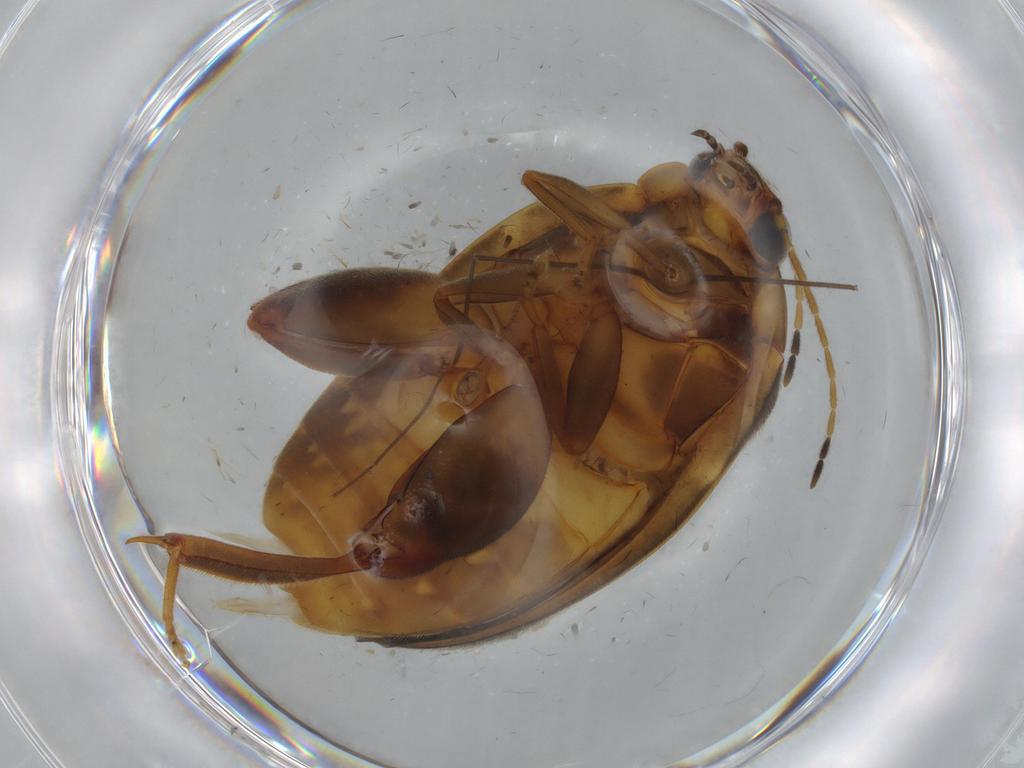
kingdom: Animalia
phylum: Arthropoda
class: Insecta
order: Coleoptera
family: Scirtidae
